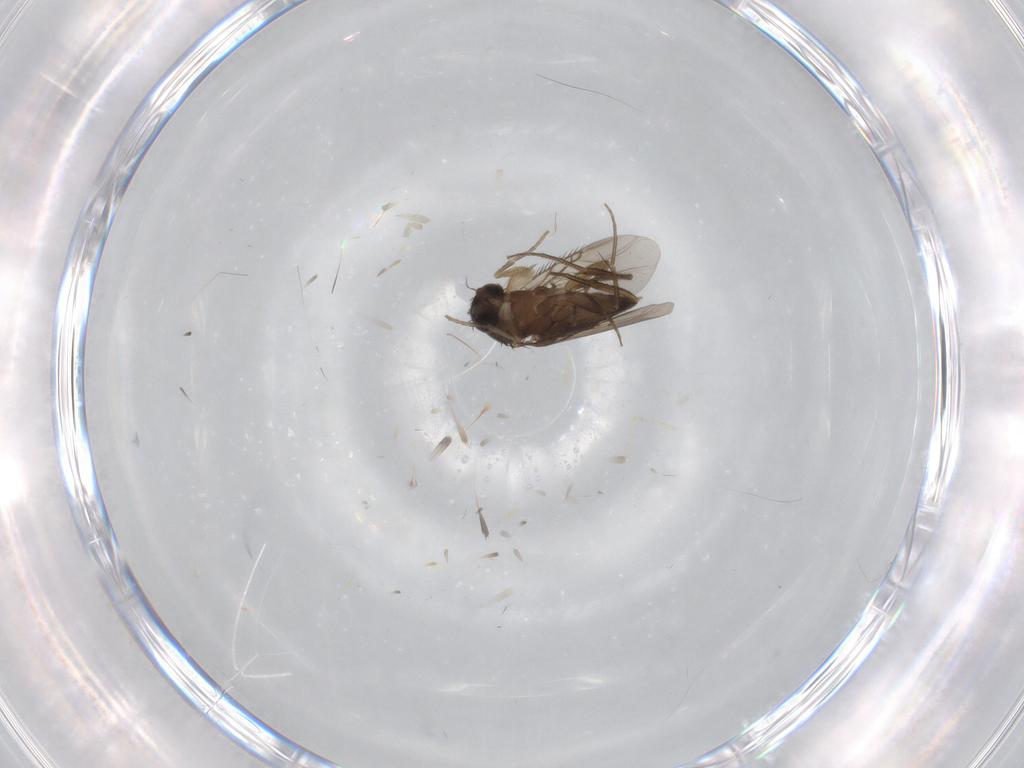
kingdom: Animalia
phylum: Arthropoda
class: Insecta
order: Diptera
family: Phoridae
